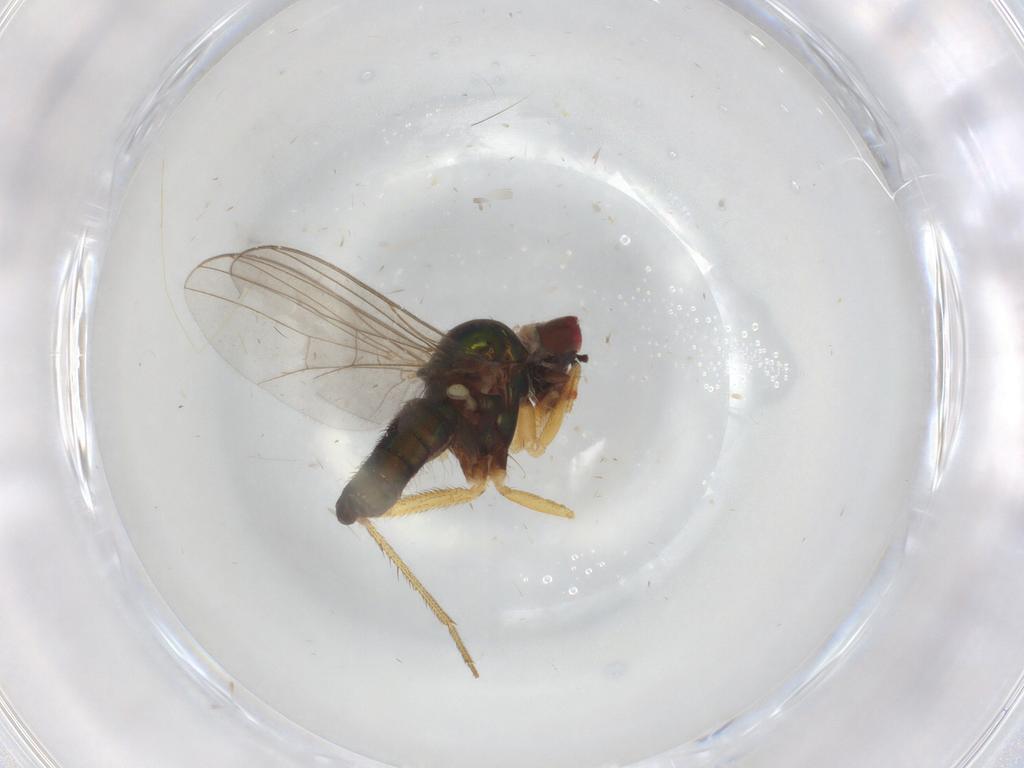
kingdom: Animalia
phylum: Arthropoda
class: Insecta
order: Diptera
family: Dolichopodidae
